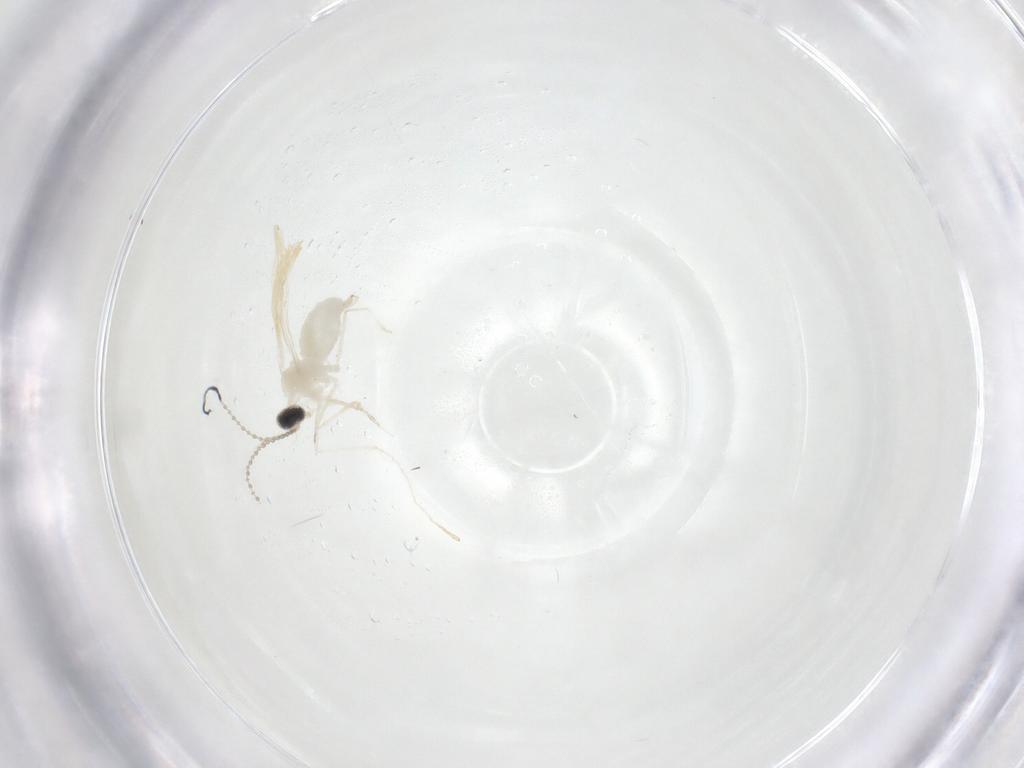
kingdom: Animalia
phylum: Arthropoda
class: Insecta
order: Diptera
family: Cecidomyiidae
